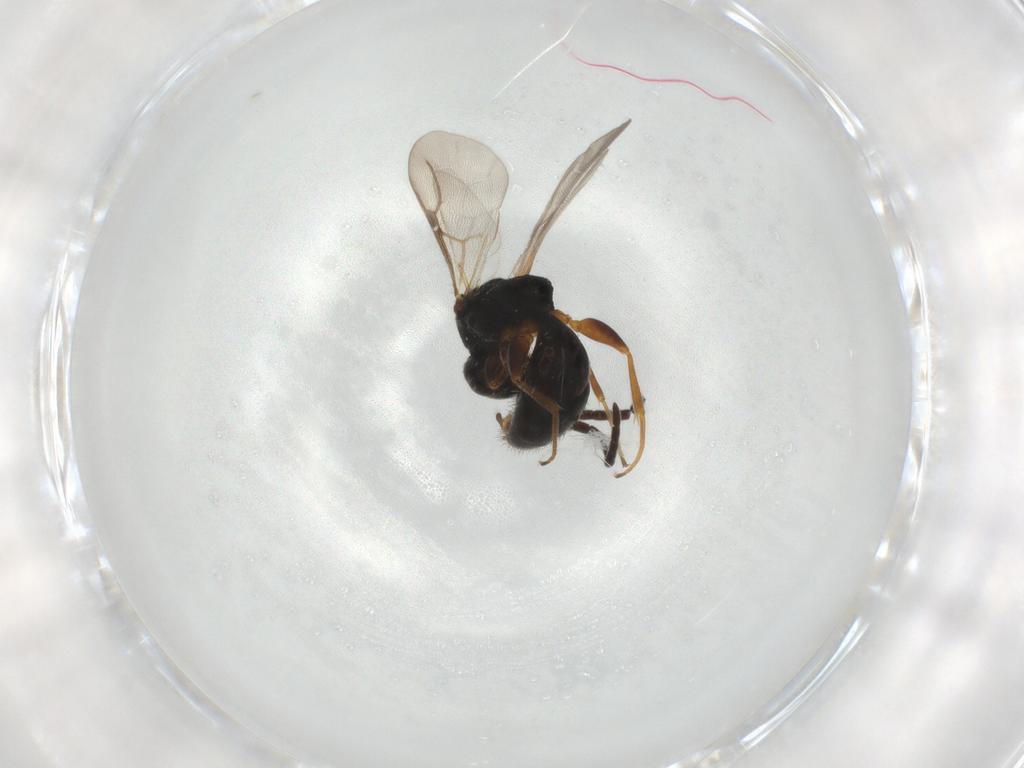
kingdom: Animalia
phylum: Arthropoda
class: Insecta
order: Hymenoptera
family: Bethylidae
